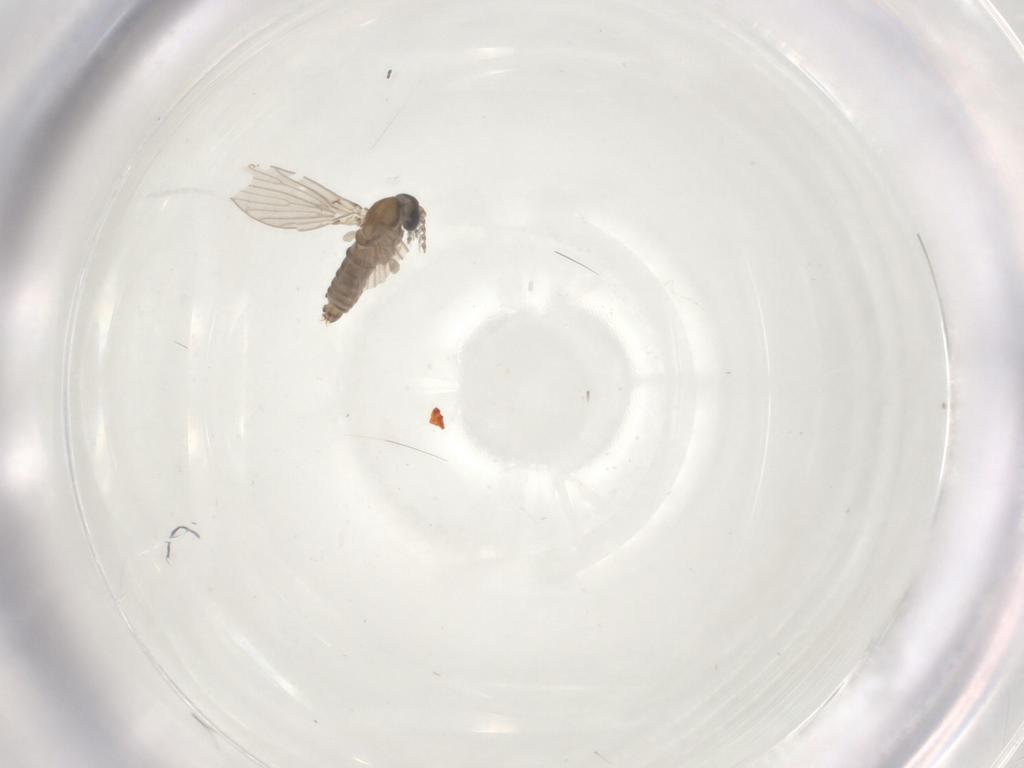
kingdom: Animalia
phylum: Arthropoda
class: Insecta
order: Diptera
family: Psychodidae
